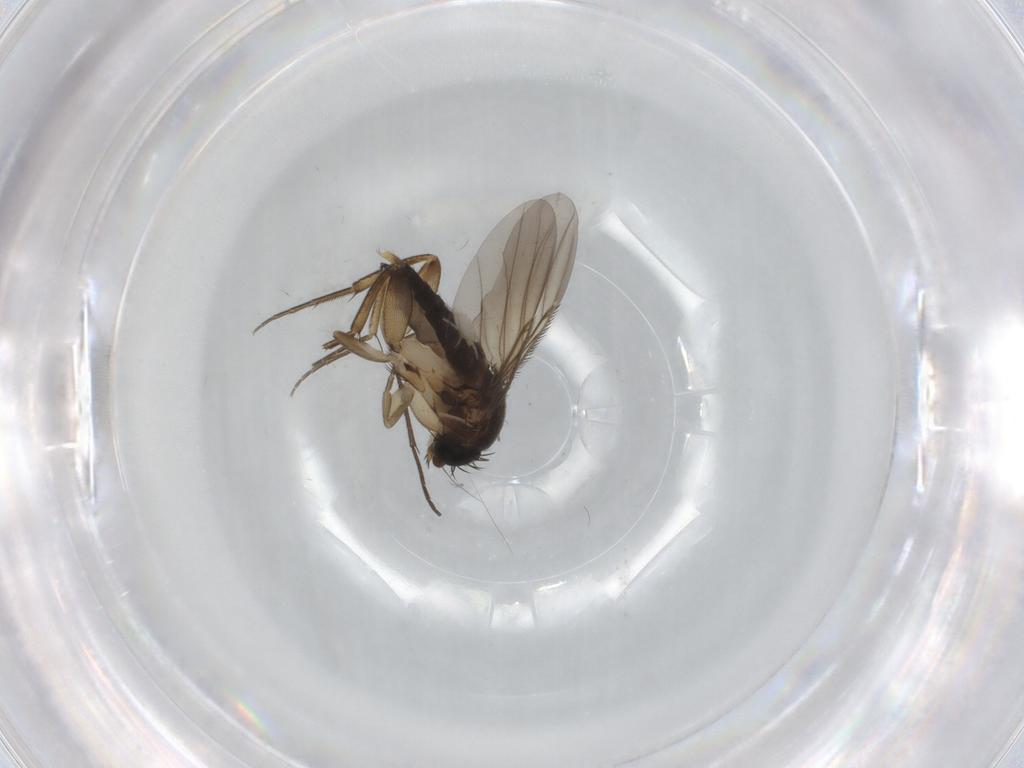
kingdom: Animalia
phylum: Arthropoda
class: Insecta
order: Diptera
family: Phoridae
